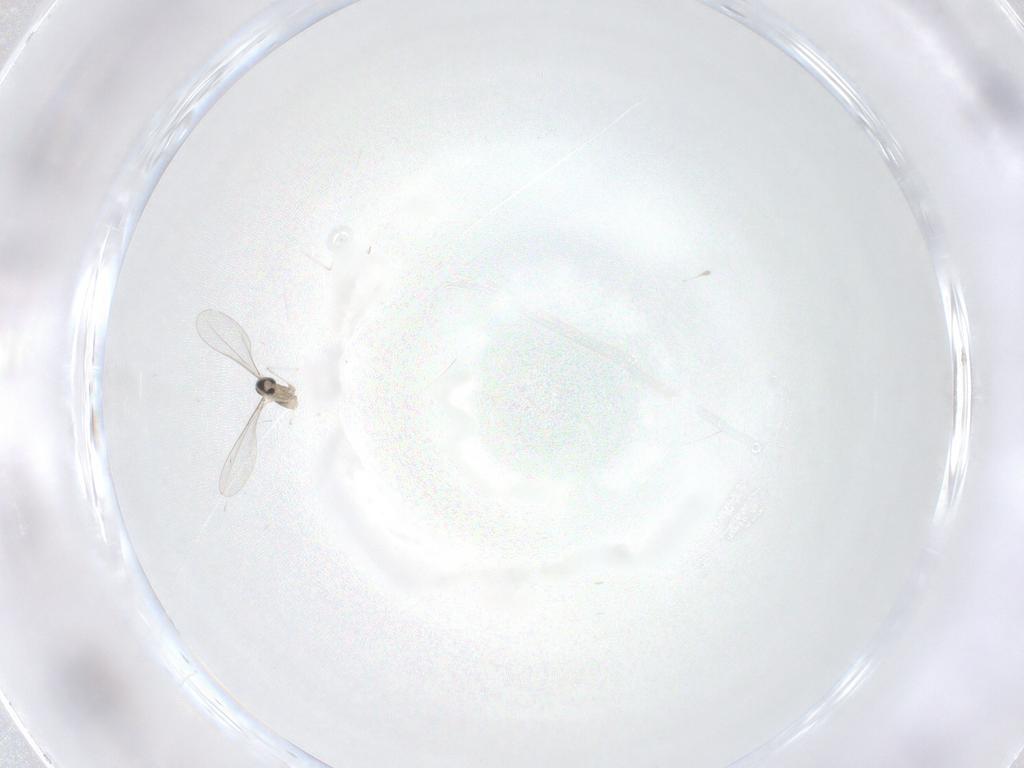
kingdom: Animalia
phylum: Arthropoda
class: Insecta
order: Diptera
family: Cecidomyiidae
